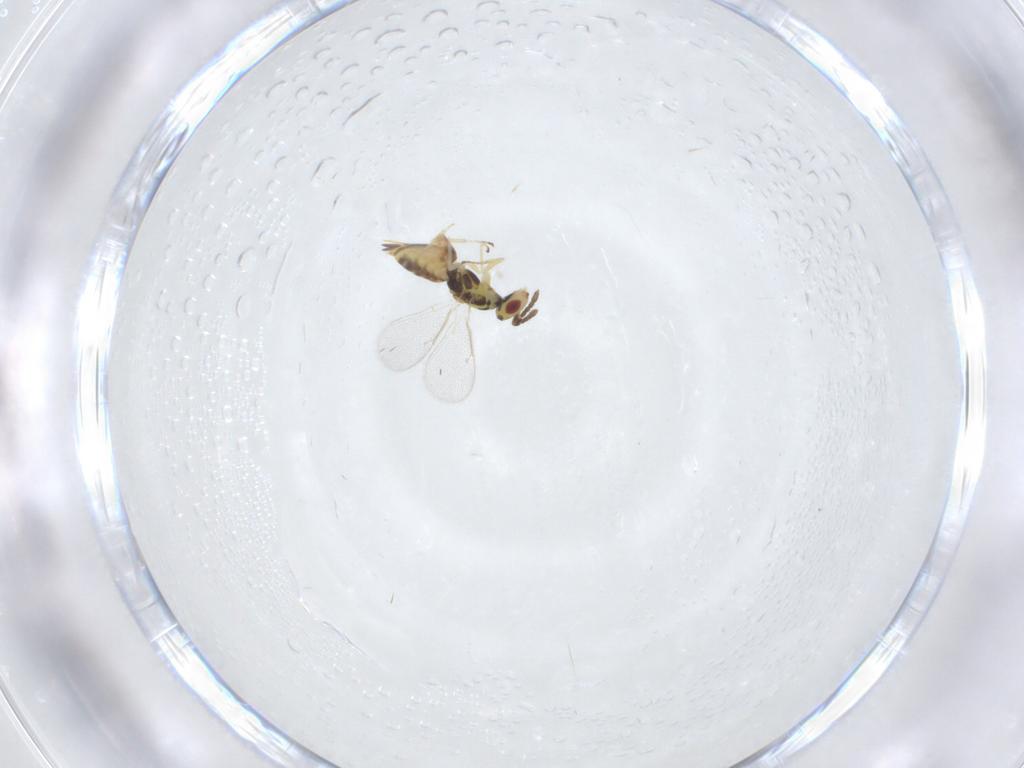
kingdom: Animalia
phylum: Arthropoda
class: Insecta
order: Hymenoptera
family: Eulophidae
